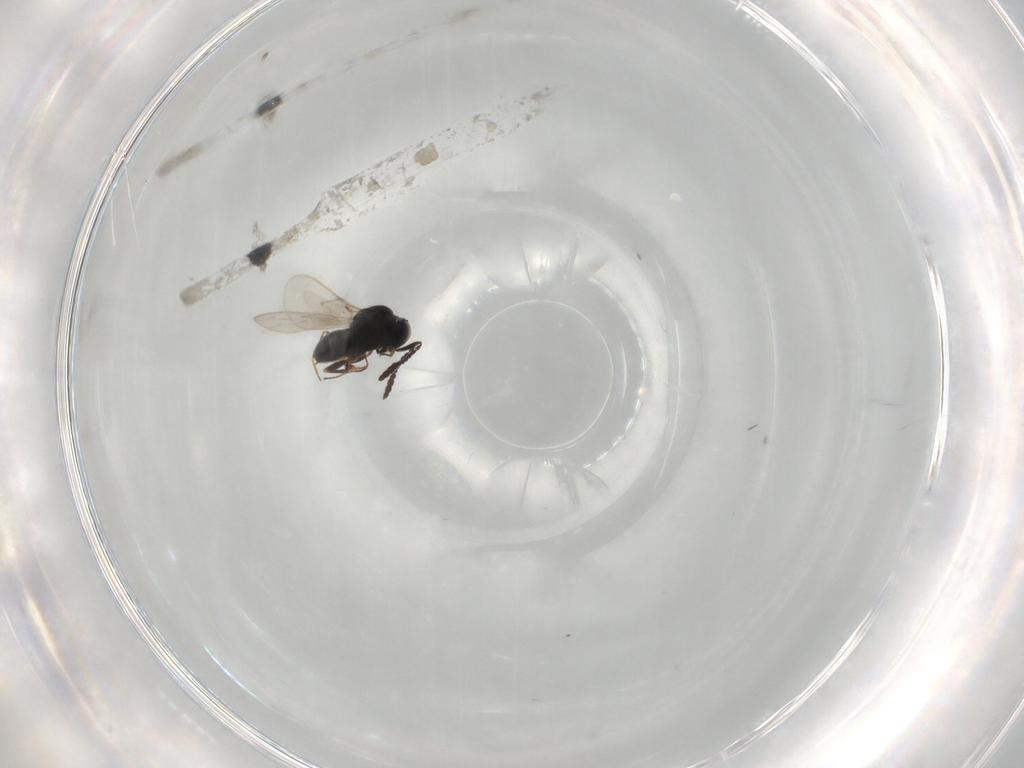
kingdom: Animalia
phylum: Arthropoda
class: Insecta
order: Hymenoptera
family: Scelionidae
